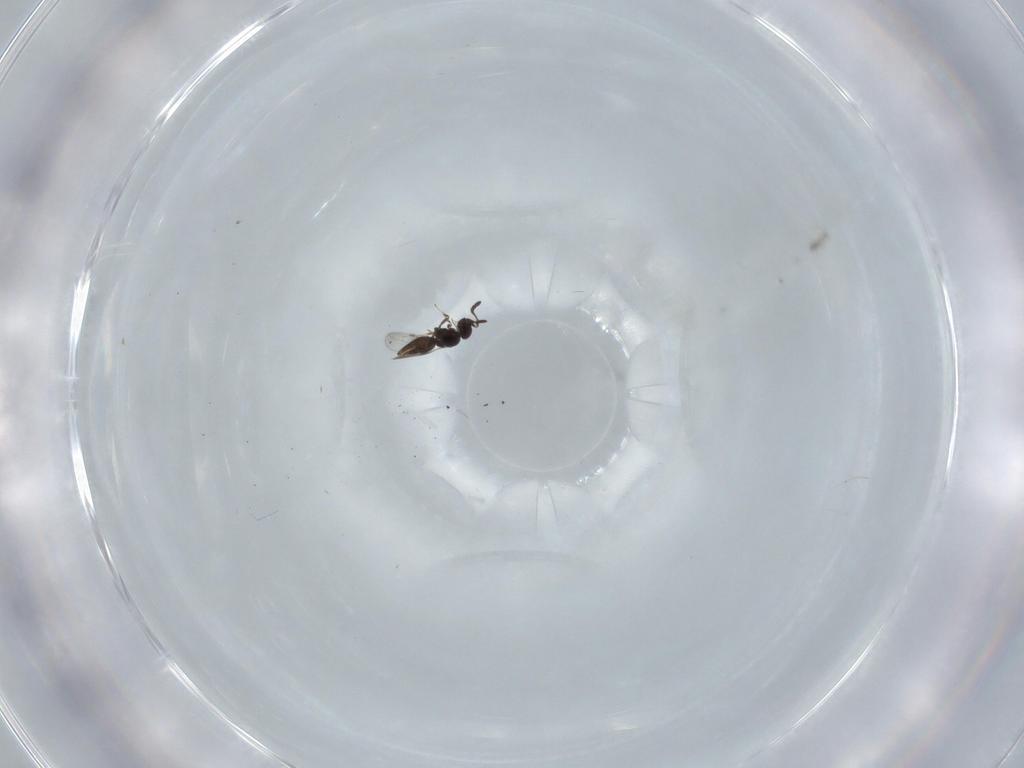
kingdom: Animalia
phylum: Arthropoda
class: Insecta
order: Hymenoptera
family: Ceraphronidae
